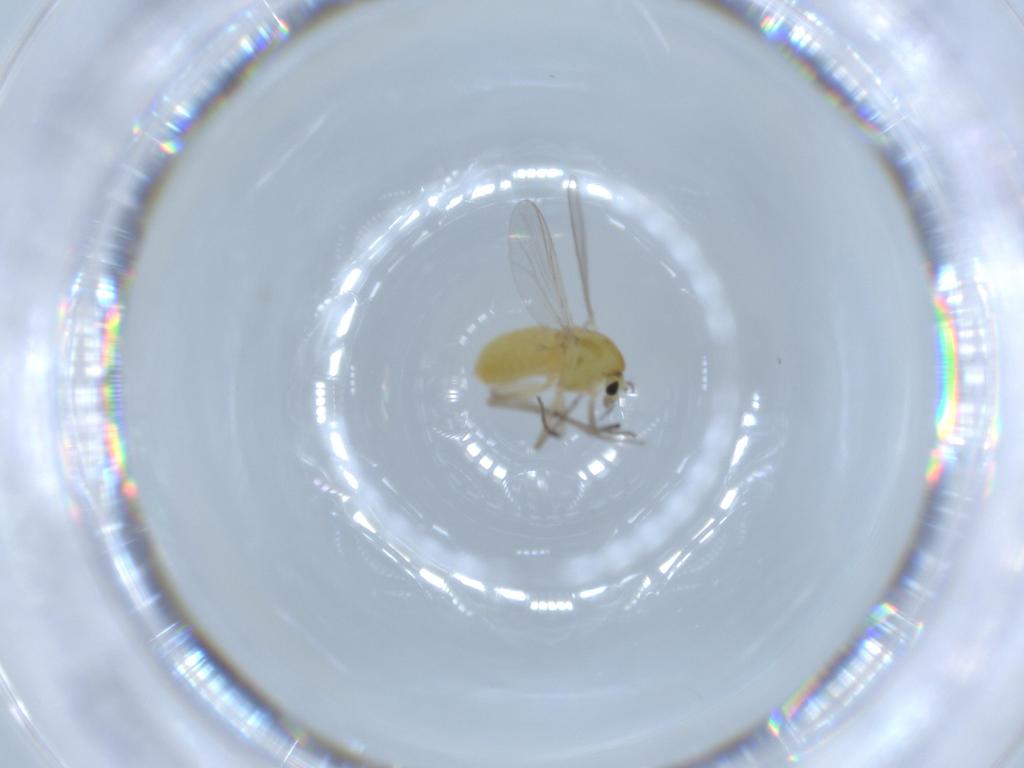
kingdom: Animalia
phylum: Arthropoda
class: Insecta
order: Diptera
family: Chironomidae
